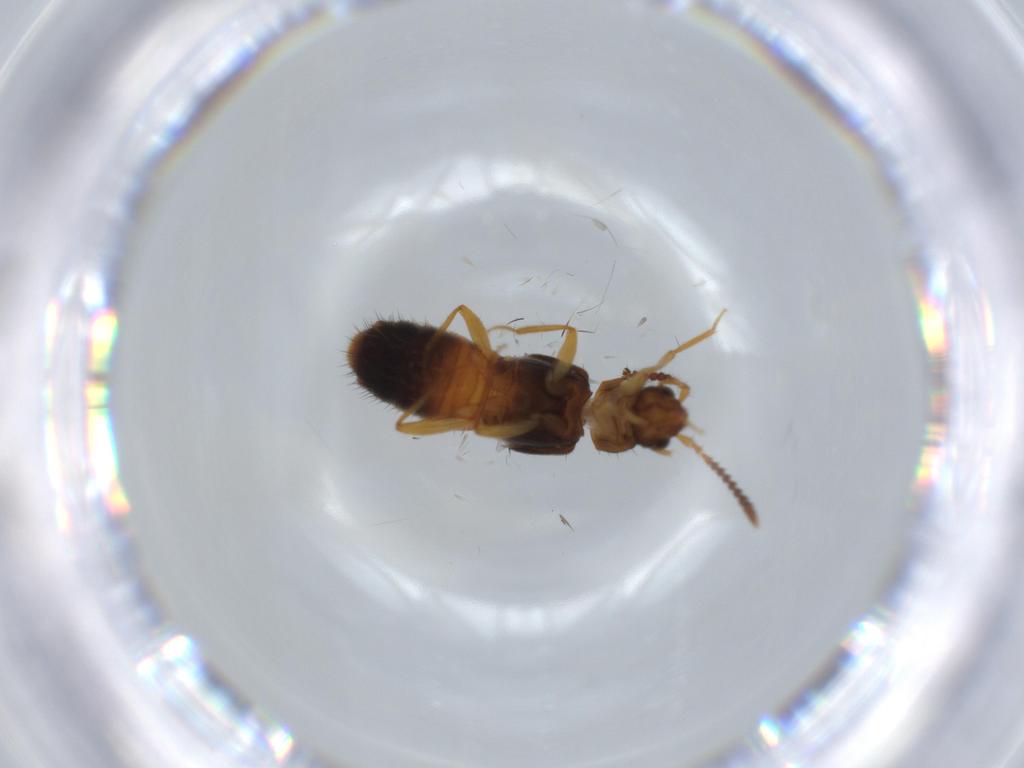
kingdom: Animalia
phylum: Arthropoda
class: Insecta
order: Coleoptera
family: Staphylinidae
